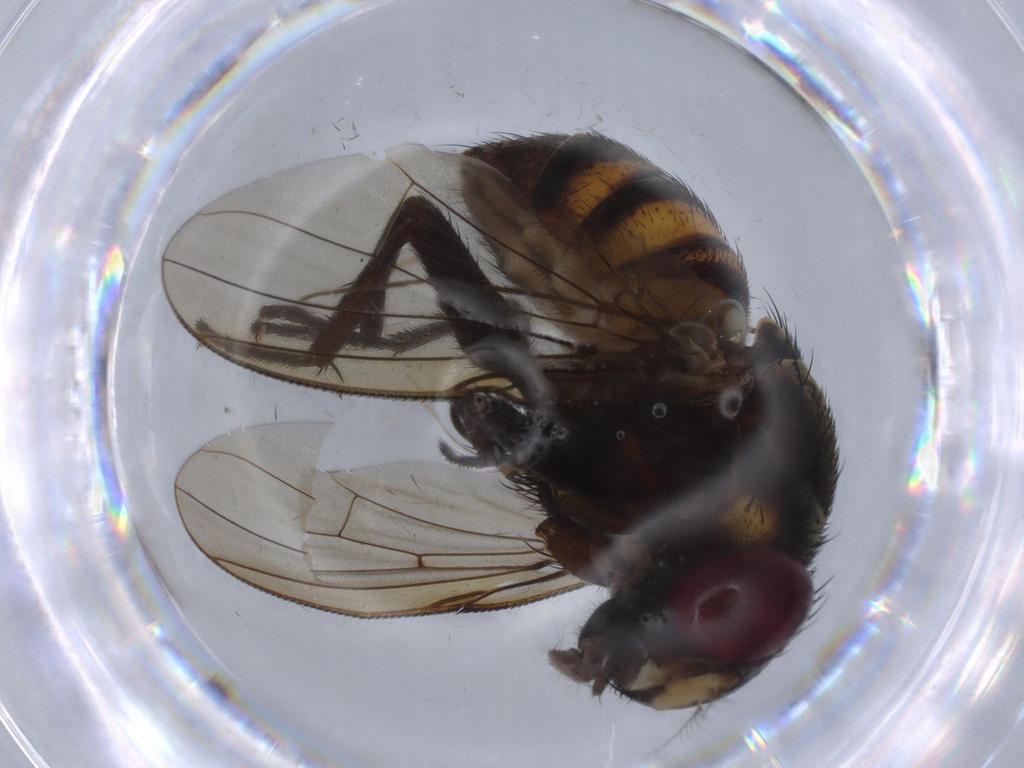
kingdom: Animalia
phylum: Arthropoda
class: Insecta
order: Diptera
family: Muscidae
